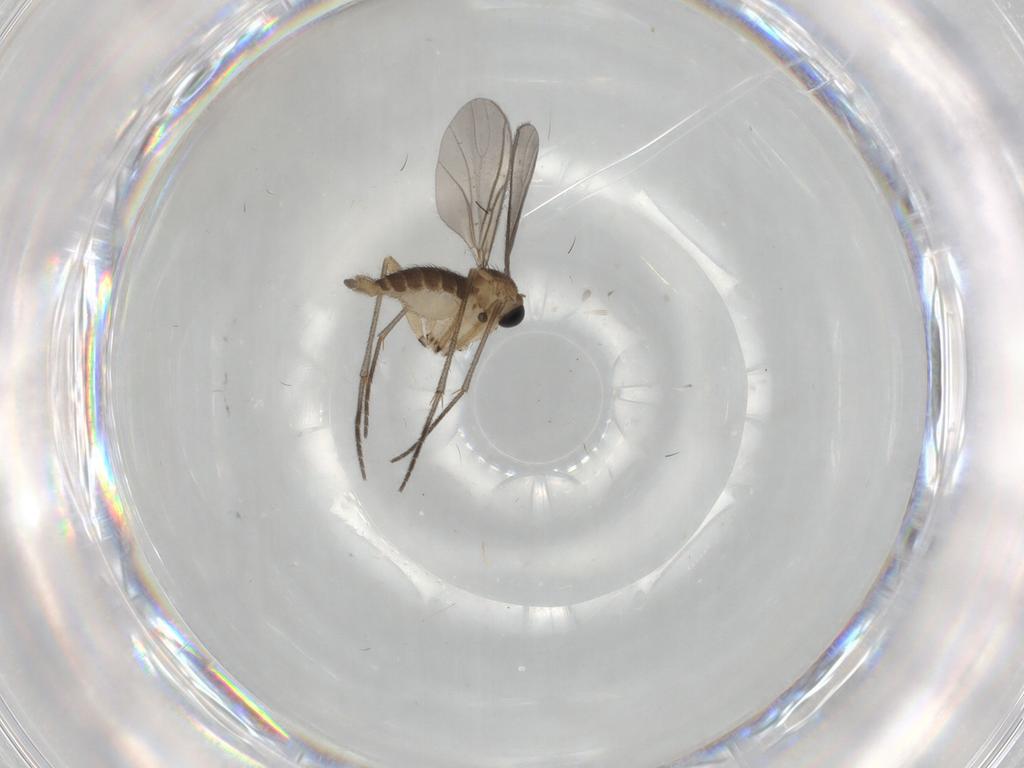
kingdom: Animalia
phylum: Arthropoda
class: Insecta
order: Diptera
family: Sciaridae
